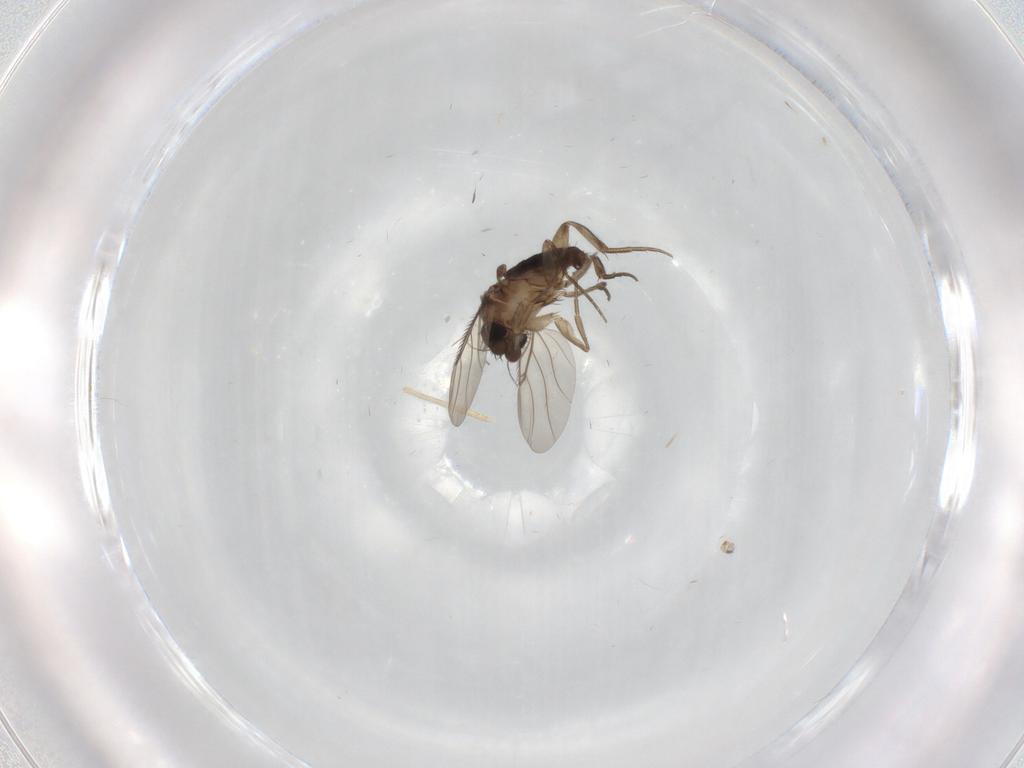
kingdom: Animalia
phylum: Arthropoda
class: Insecta
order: Diptera
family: Phoridae
